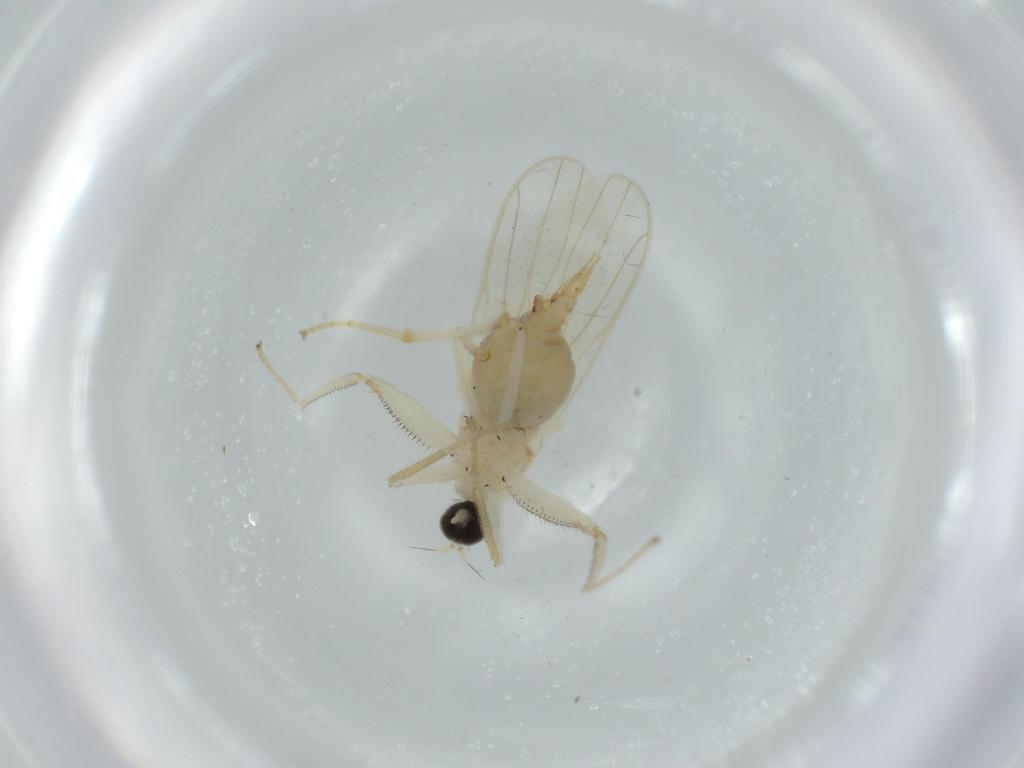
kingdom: Animalia
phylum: Arthropoda
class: Insecta
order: Diptera
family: Hybotidae
